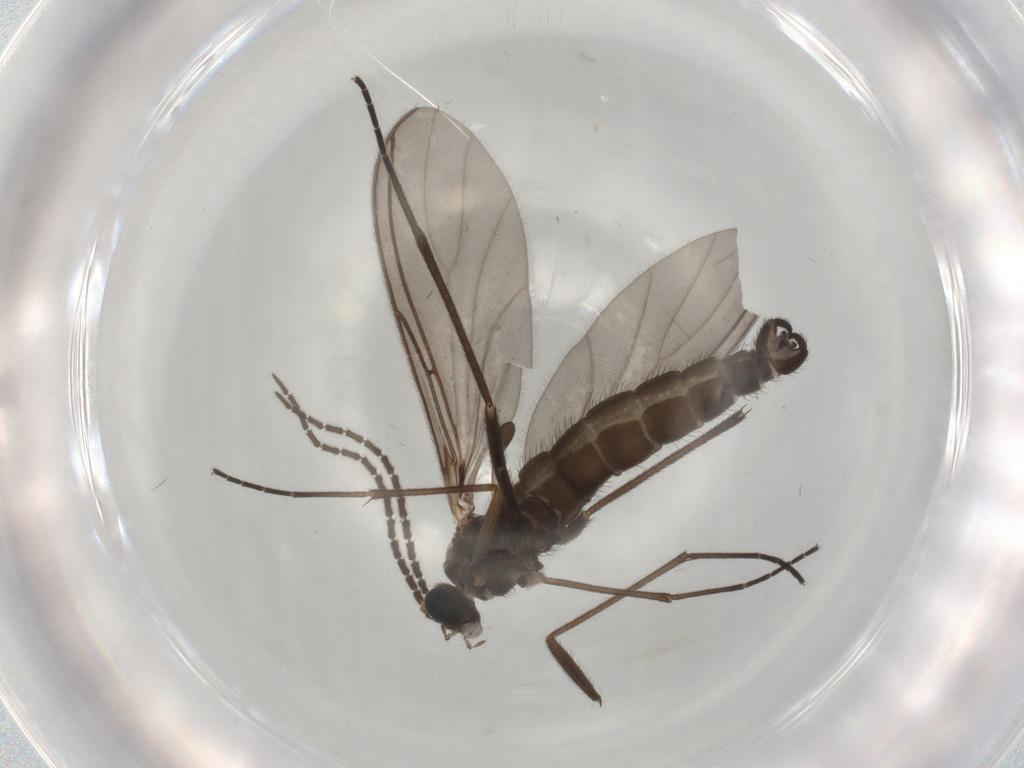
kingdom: Animalia
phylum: Arthropoda
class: Insecta
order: Diptera
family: Sciaridae
